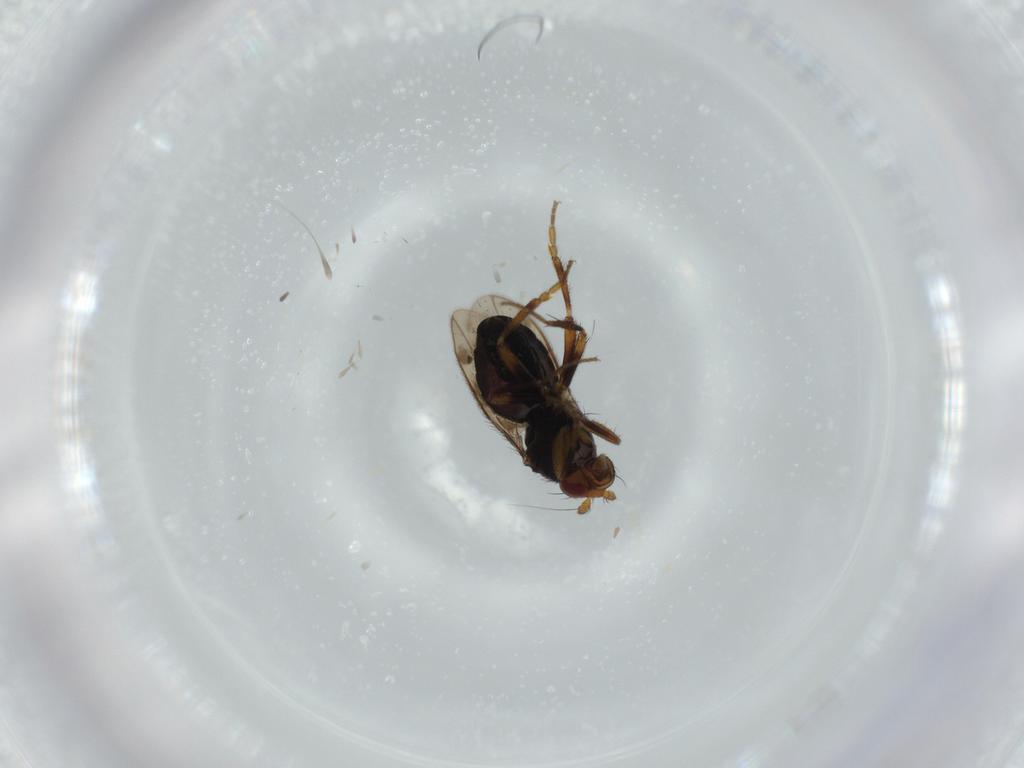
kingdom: Animalia
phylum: Arthropoda
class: Insecta
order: Diptera
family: Sphaeroceridae
